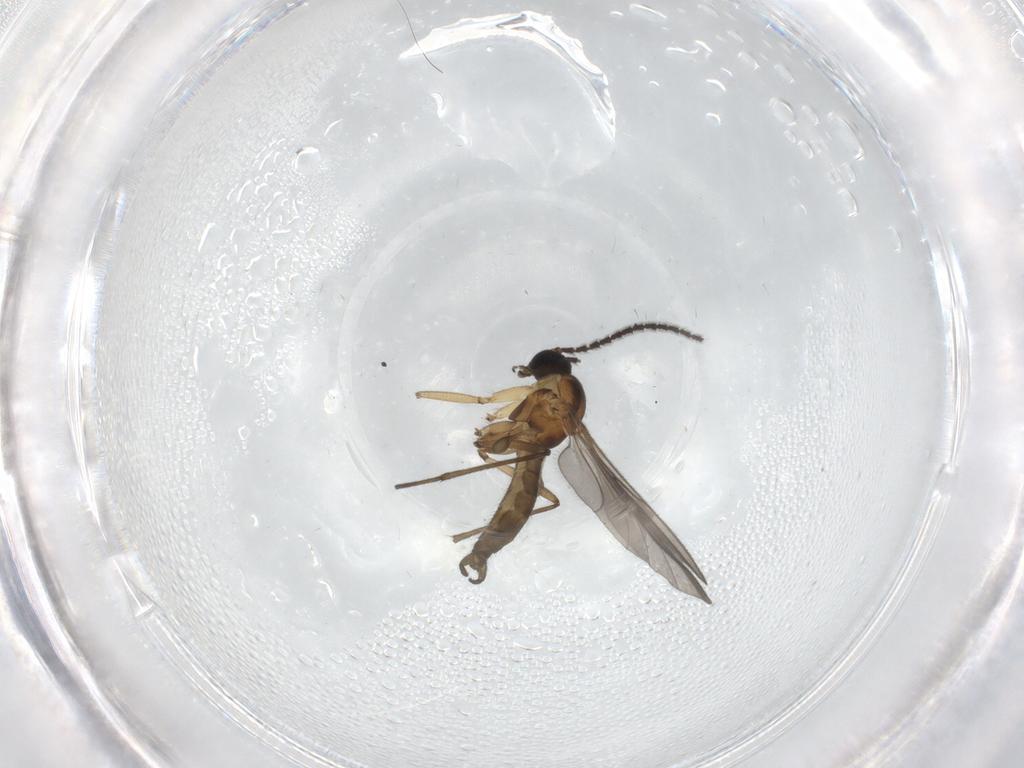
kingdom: Animalia
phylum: Arthropoda
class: Insecta
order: Diptera
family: Sciaridae
